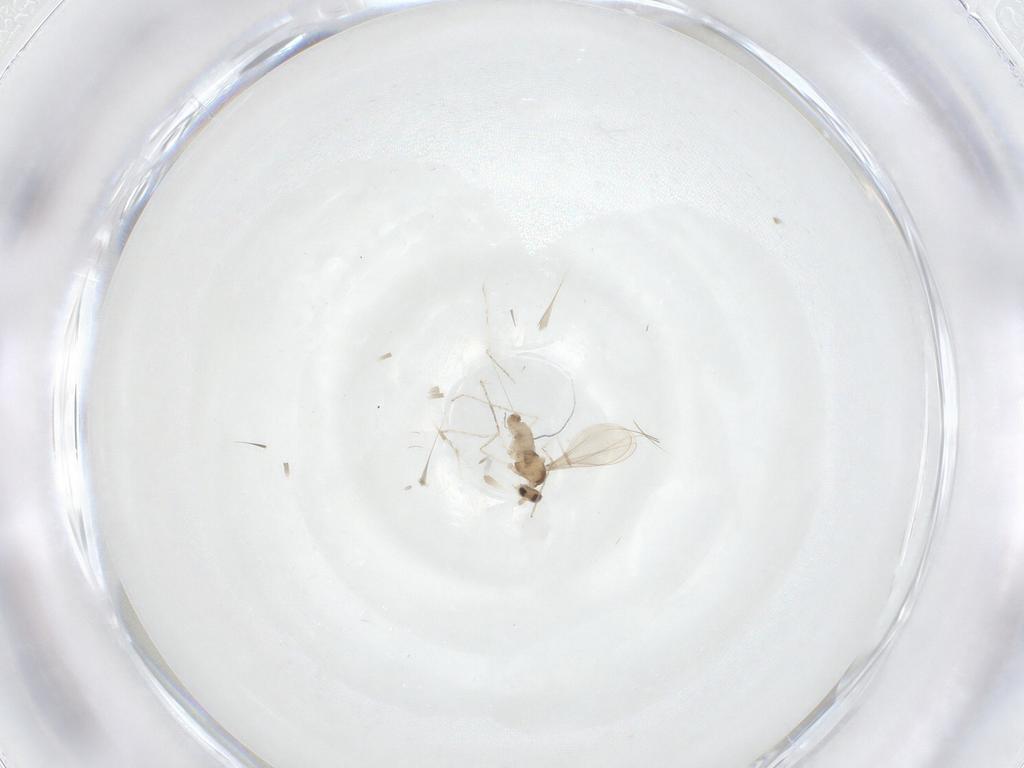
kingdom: Animalia
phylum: Arthropoda
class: Insecta
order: Diptera
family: Cecidomyiidae
